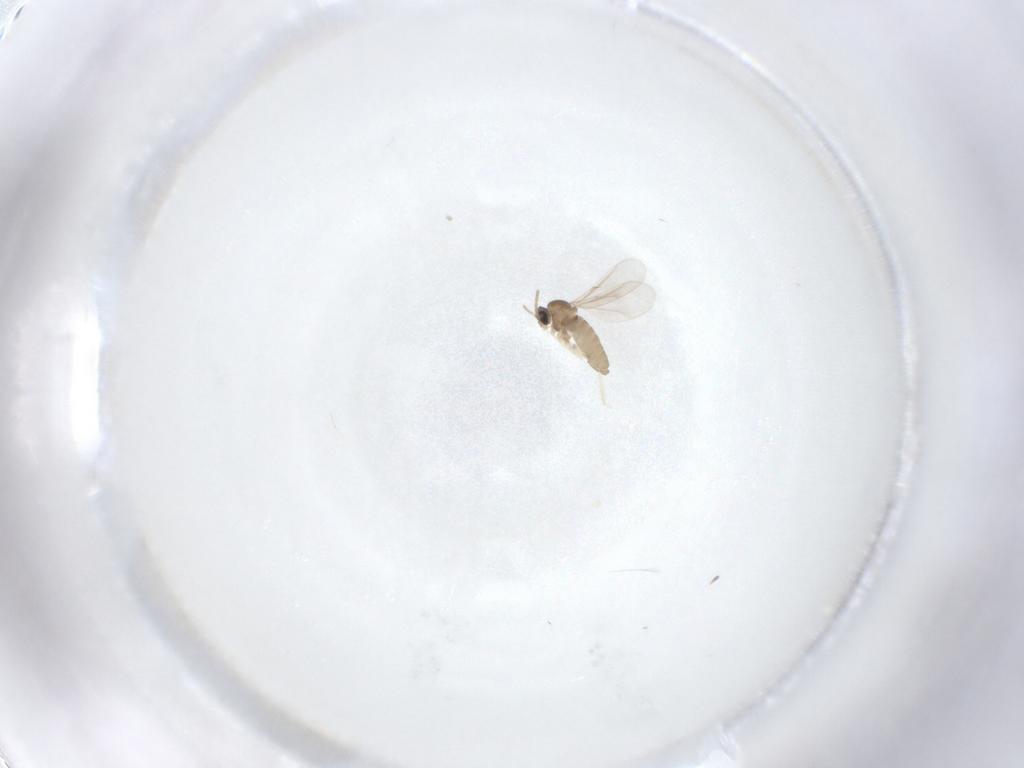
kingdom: Animalia
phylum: Arthropoda
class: Insecta
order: Diptera
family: Cecidomyiidae
